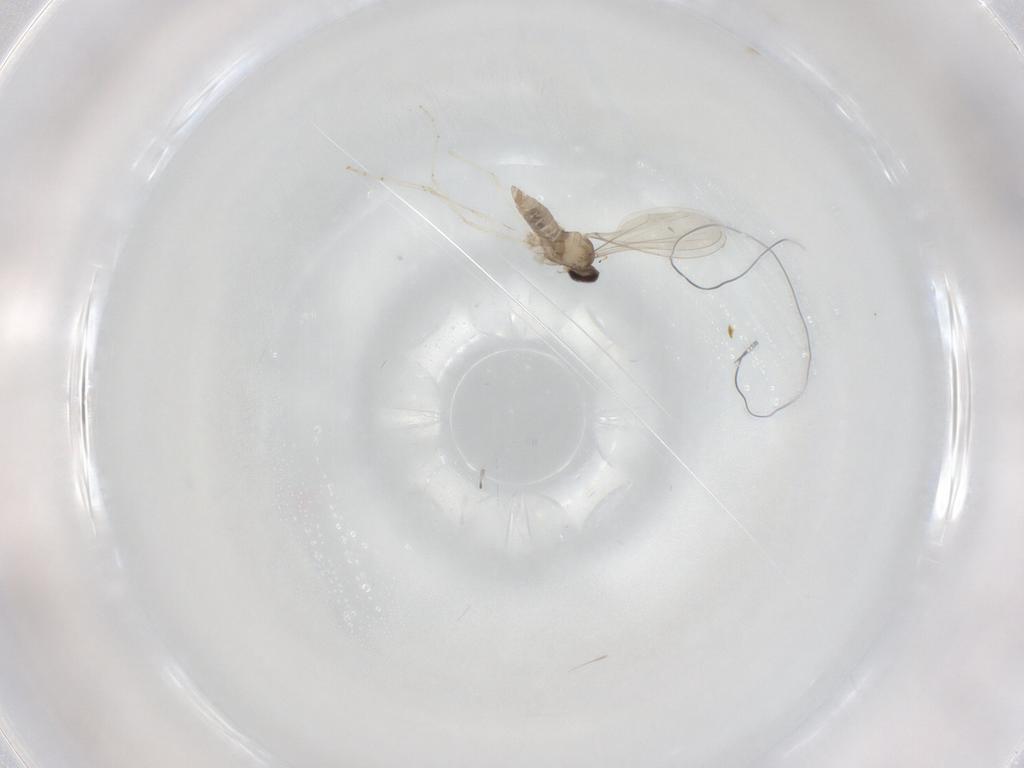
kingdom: Animalia
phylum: Arthropoda
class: Insecta
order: Diptera
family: Cecidomyiidae
